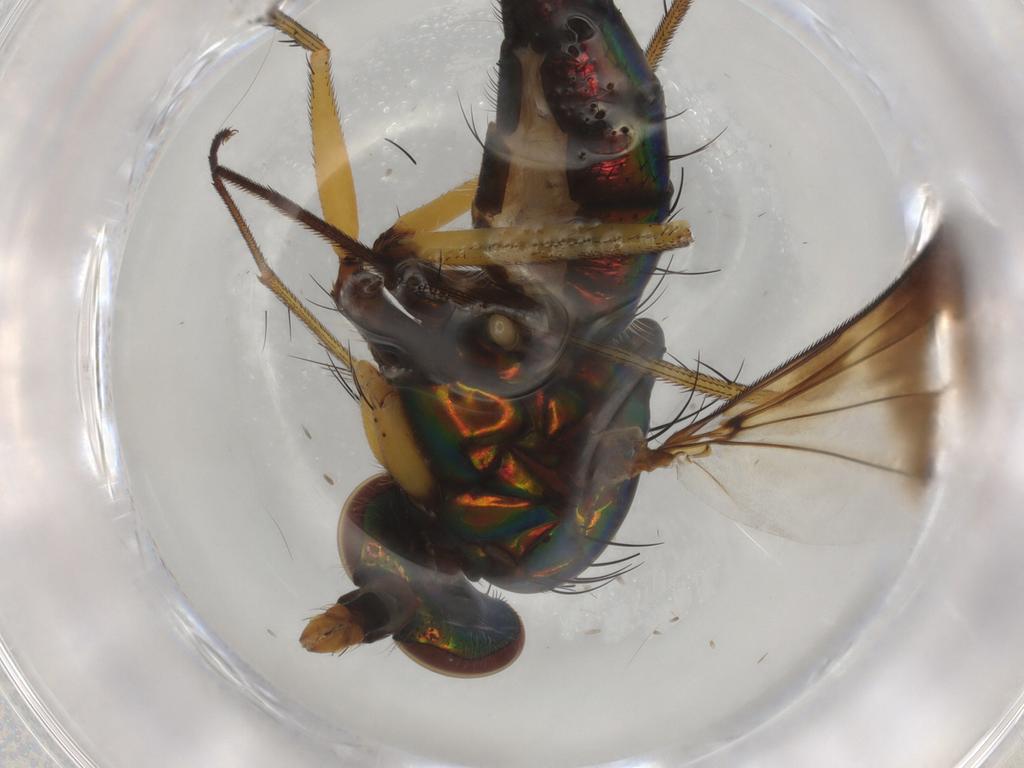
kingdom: Animalia
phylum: Arthropoda
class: Insecta
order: Diptera
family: Dolichopodidae
